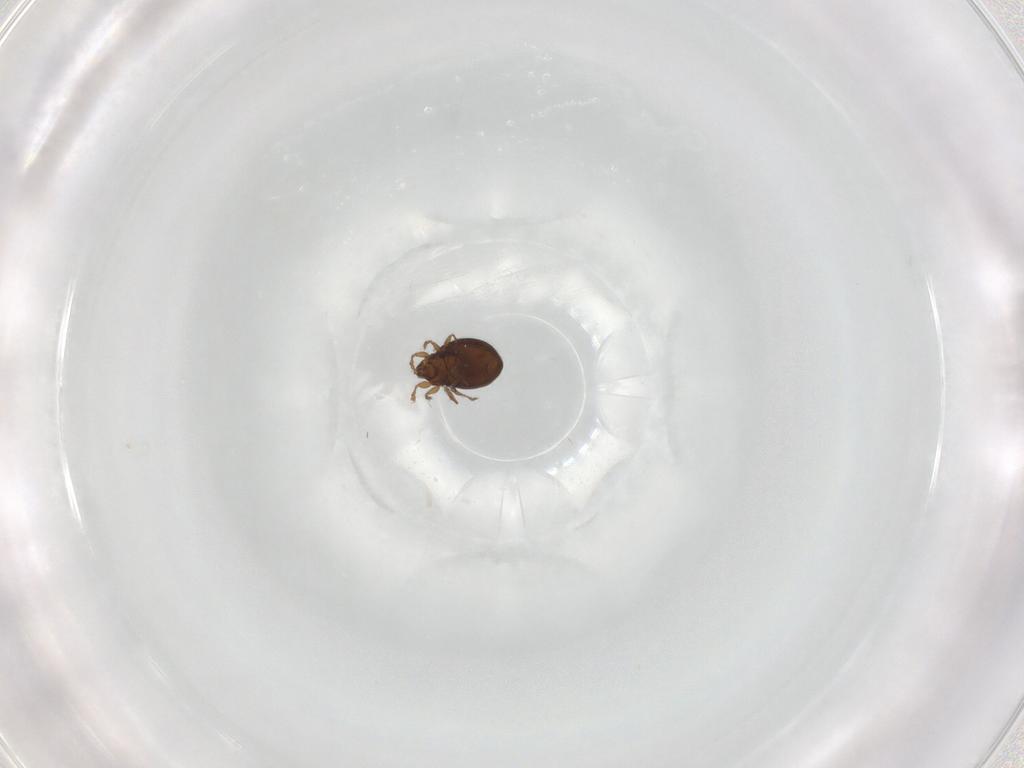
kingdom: Animalia
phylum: Arthropoda
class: Arachnida
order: Sarcoptiformes
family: Oribatulidae
